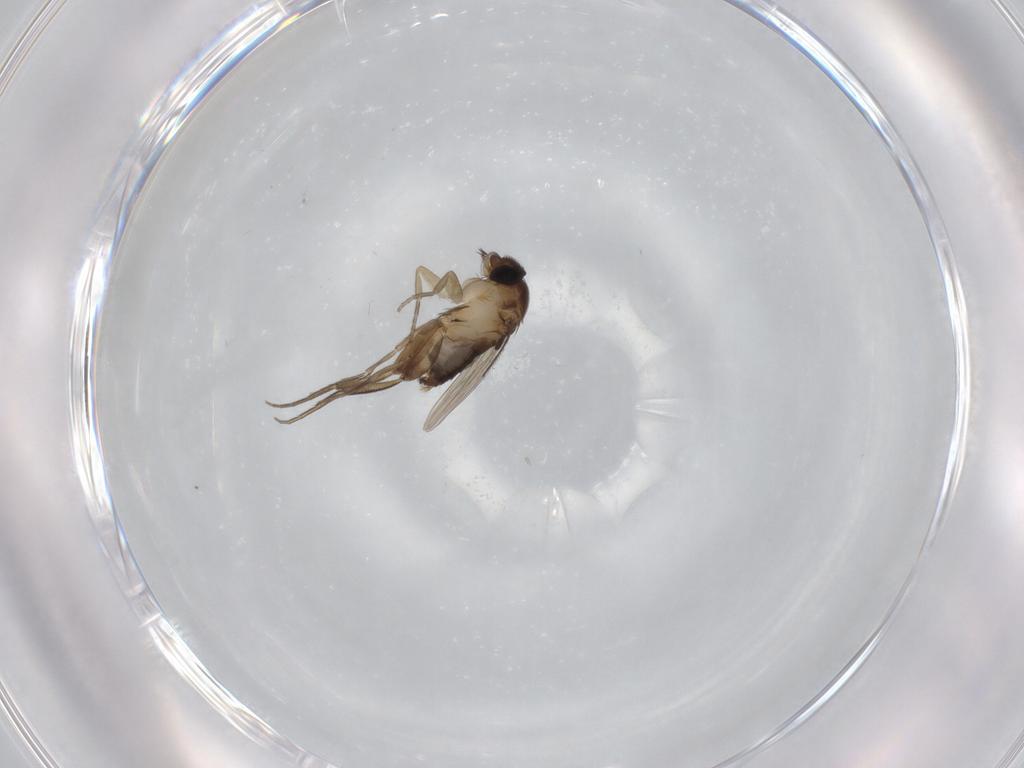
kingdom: Animalia
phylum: Arthropoda
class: Insecta
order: Diptera
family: Phoridae
